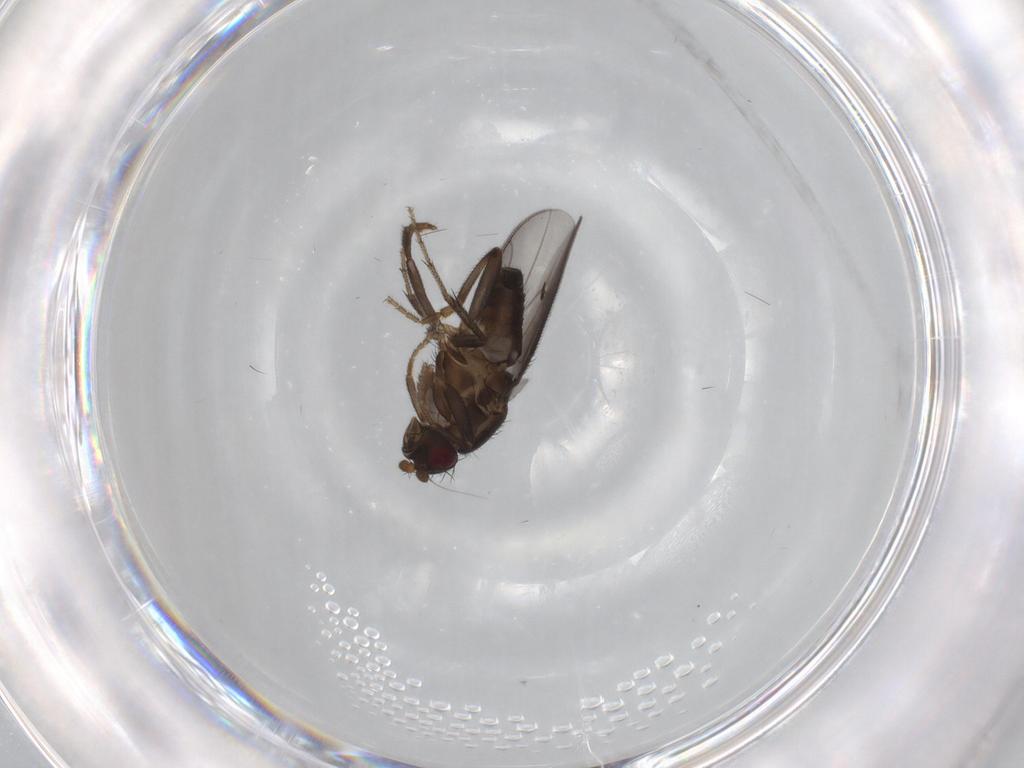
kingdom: Animalia
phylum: Arthropoda
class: Insecta
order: Diptera
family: Sphaeroceridae
